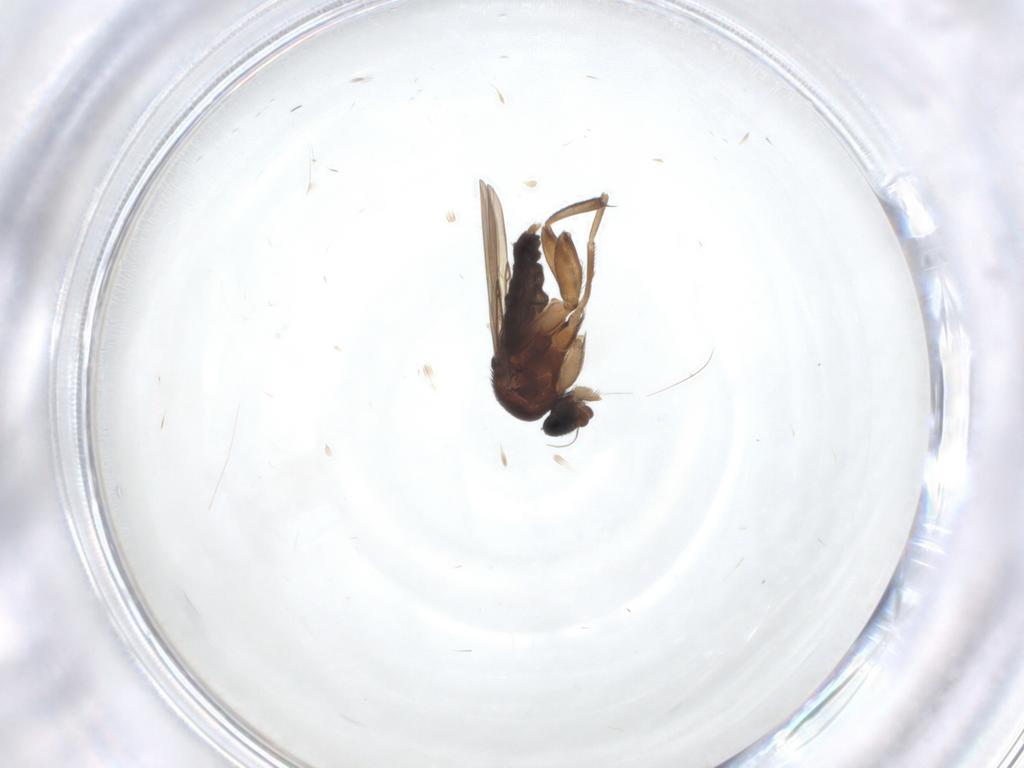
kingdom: Animalia
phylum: Arthropoda
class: Insecta
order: Diptera
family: Phoridae
